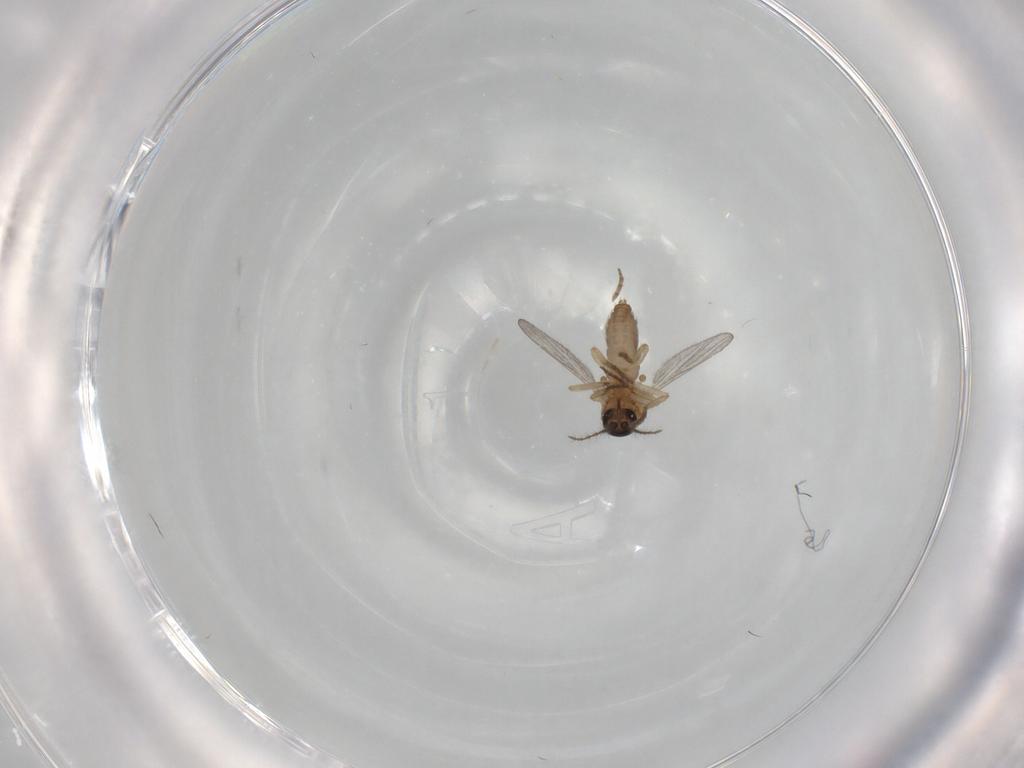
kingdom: Animalia
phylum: Arthropoda
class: Insecta
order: Diptera
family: Ceratopogonidae
